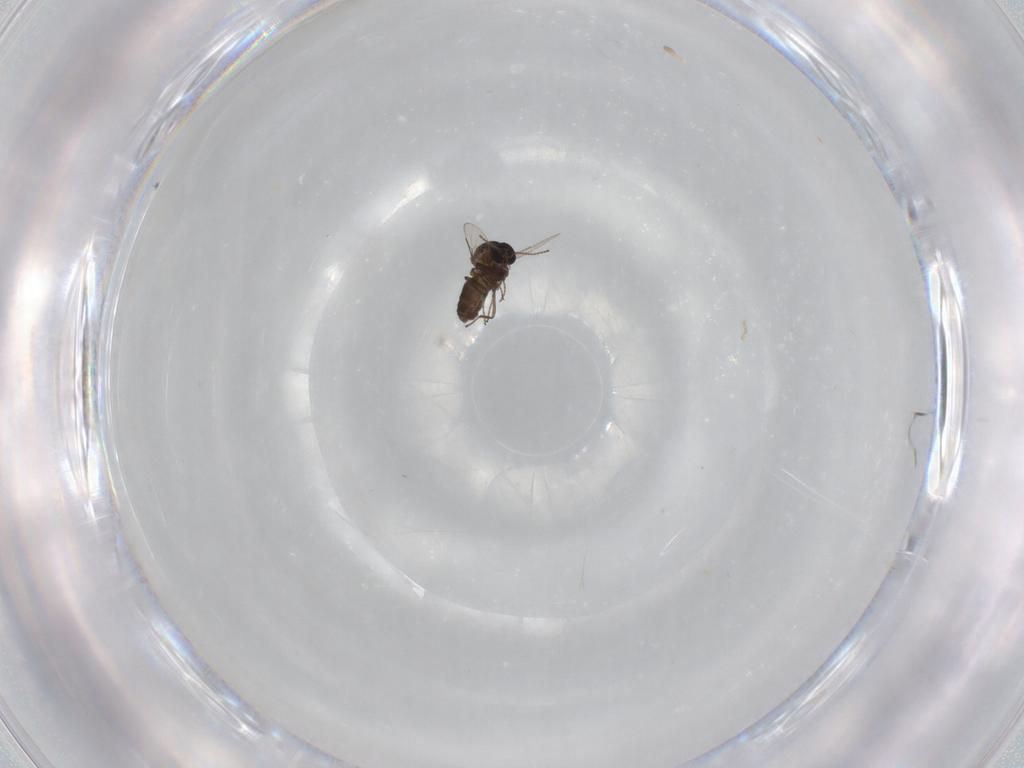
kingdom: Animalia
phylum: Arthropoda
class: Insecta
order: Diptera
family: Ceratopogonidae
